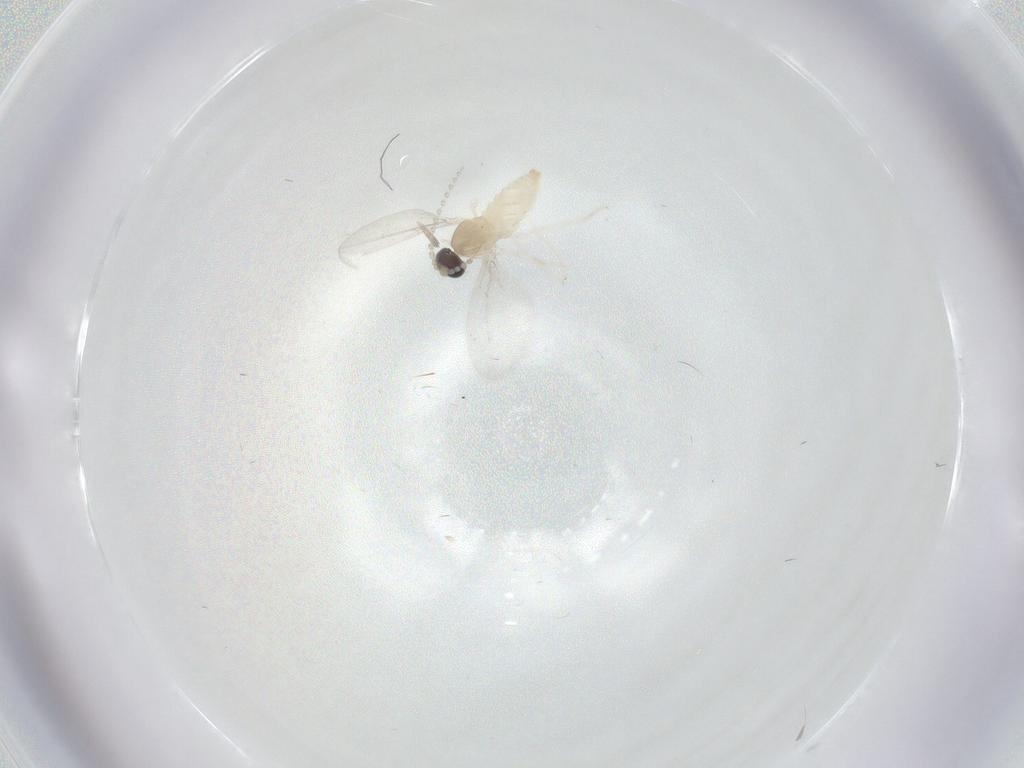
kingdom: Animalia
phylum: Arthropoda
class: Insecta
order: Diptera
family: Cecidomyiidae
